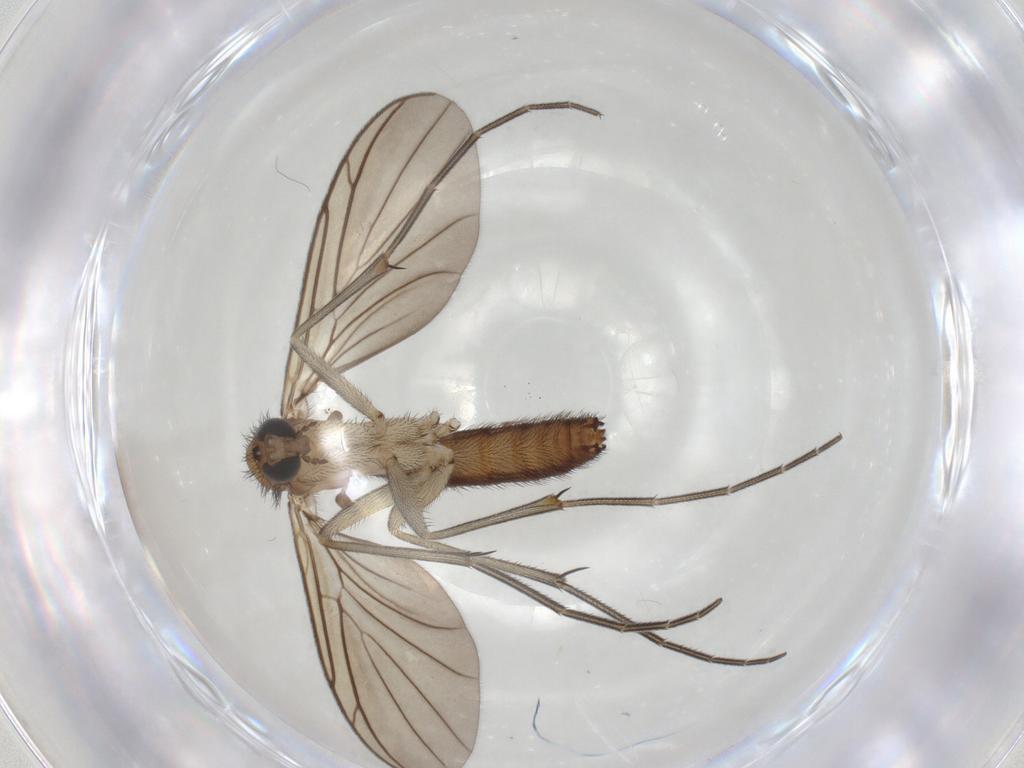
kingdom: Animalia
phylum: Arthropoda
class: Insecta
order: Diptera
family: Keroplatidae
